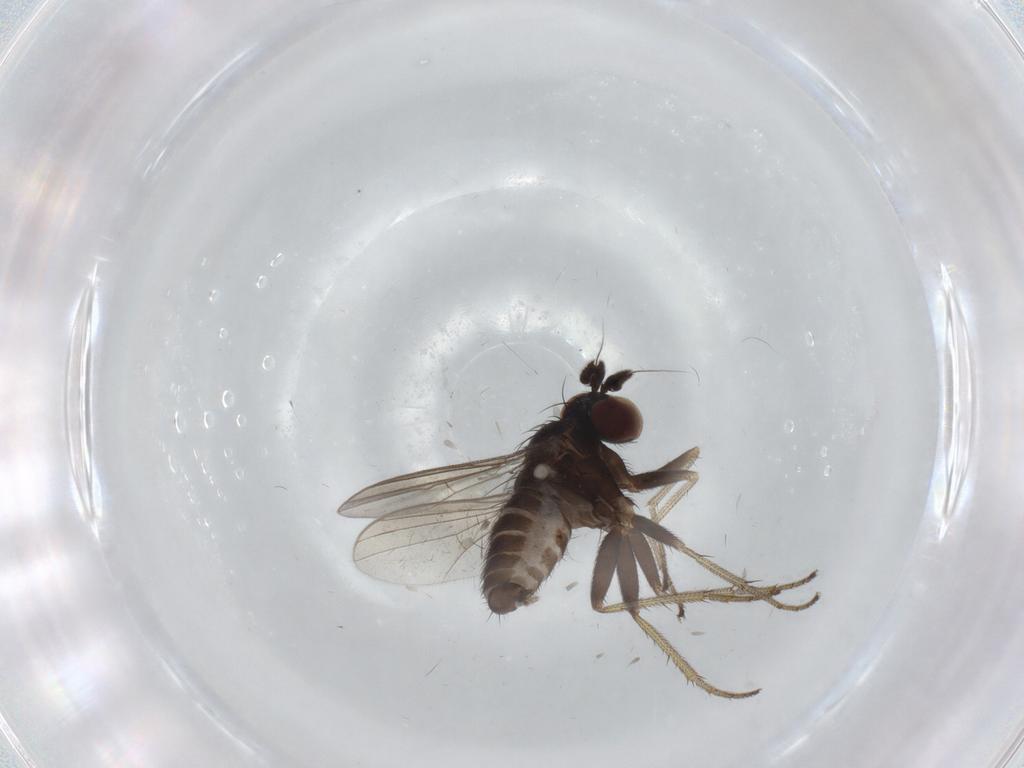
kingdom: Animalia
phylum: Arthropoda
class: Insecta
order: Diptera
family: Dolichopodidae
